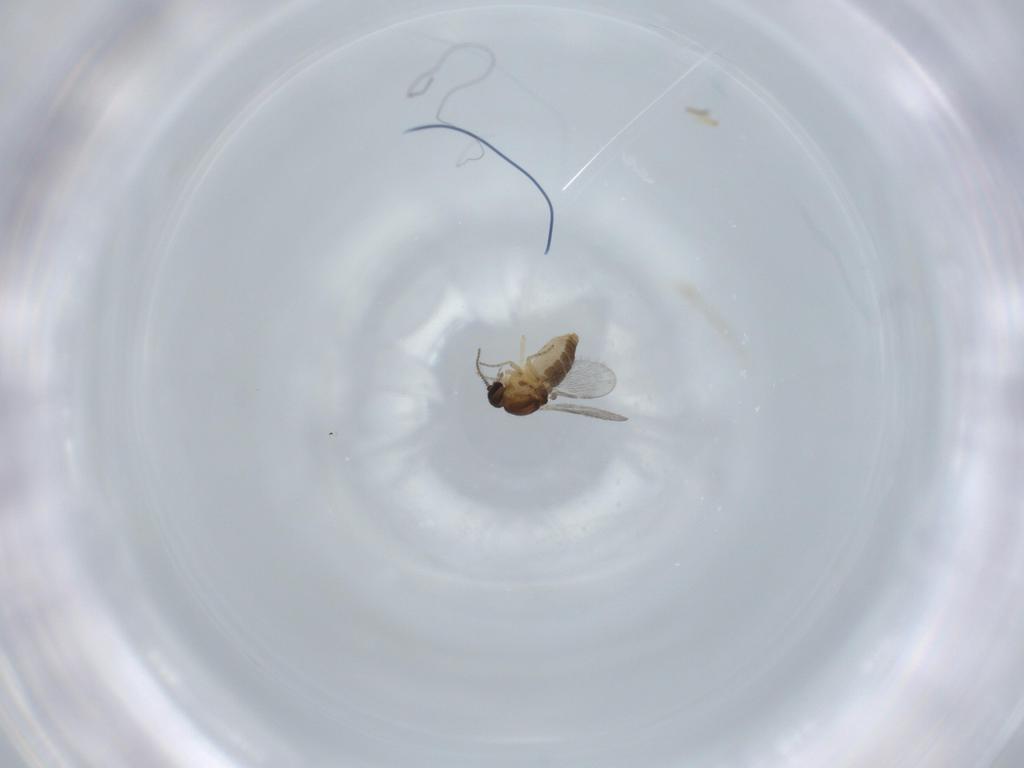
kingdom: Animalia
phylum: Arthropoda
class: Insecta
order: Diptera
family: Ceratopogonidae
